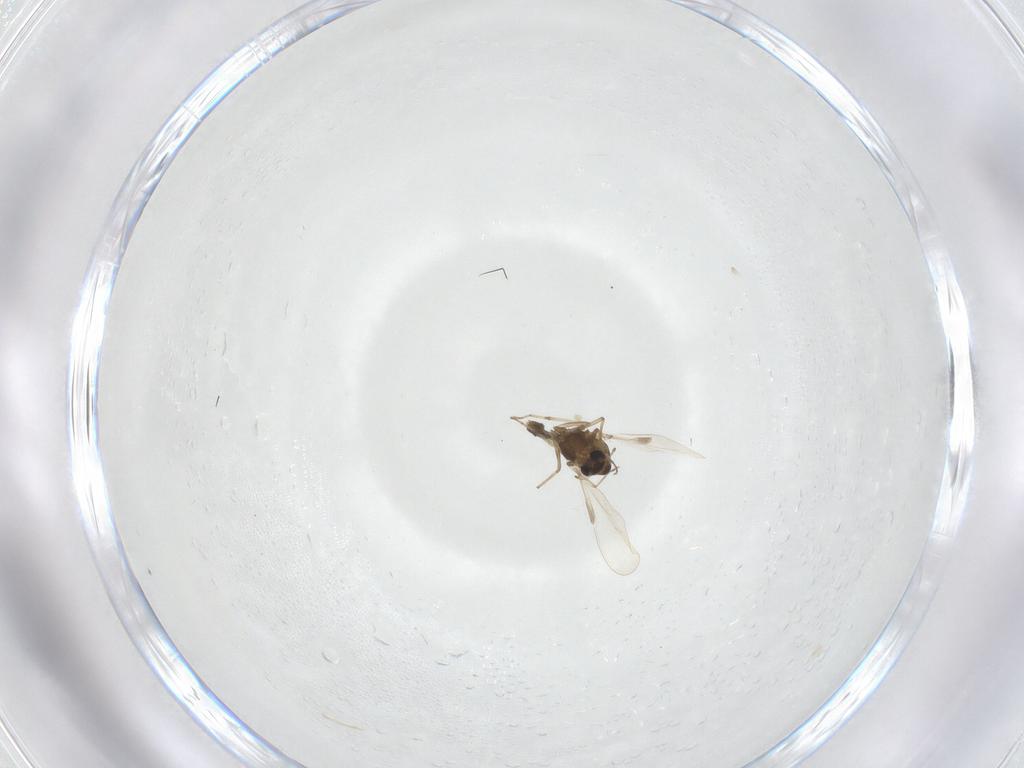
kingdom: Animalia
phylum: Arthropoda
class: Insecta
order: Diptera
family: Chironomidae
